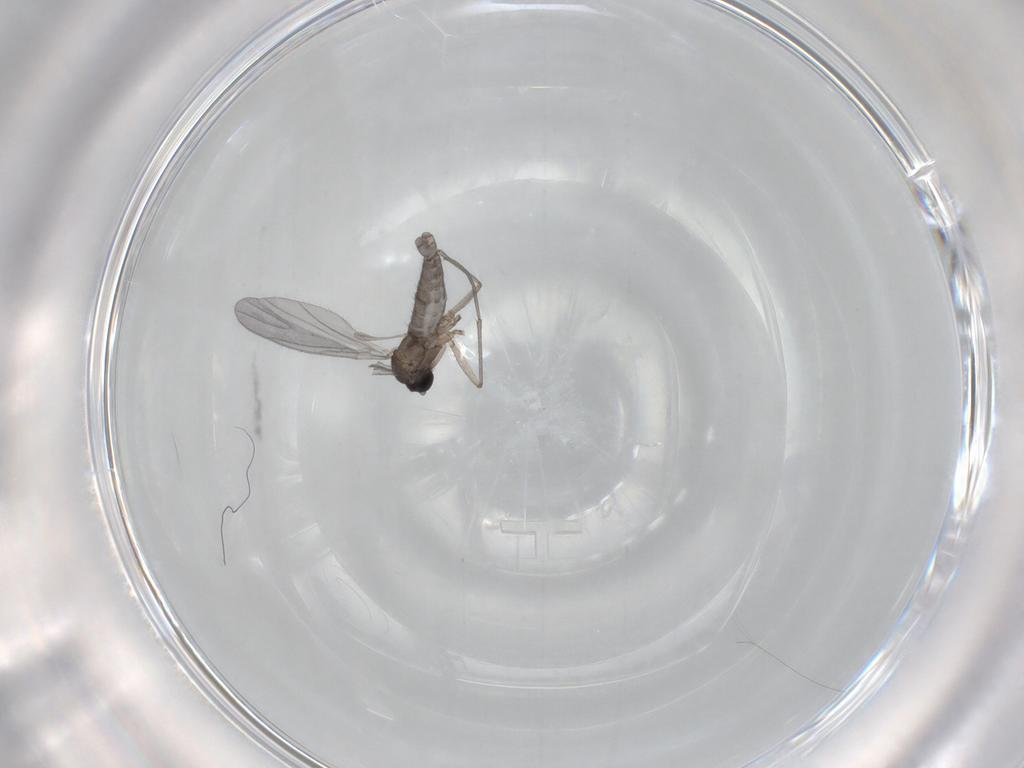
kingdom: Animalia
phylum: Arthropoda
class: Insecta
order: Diptera
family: Sciaridae
